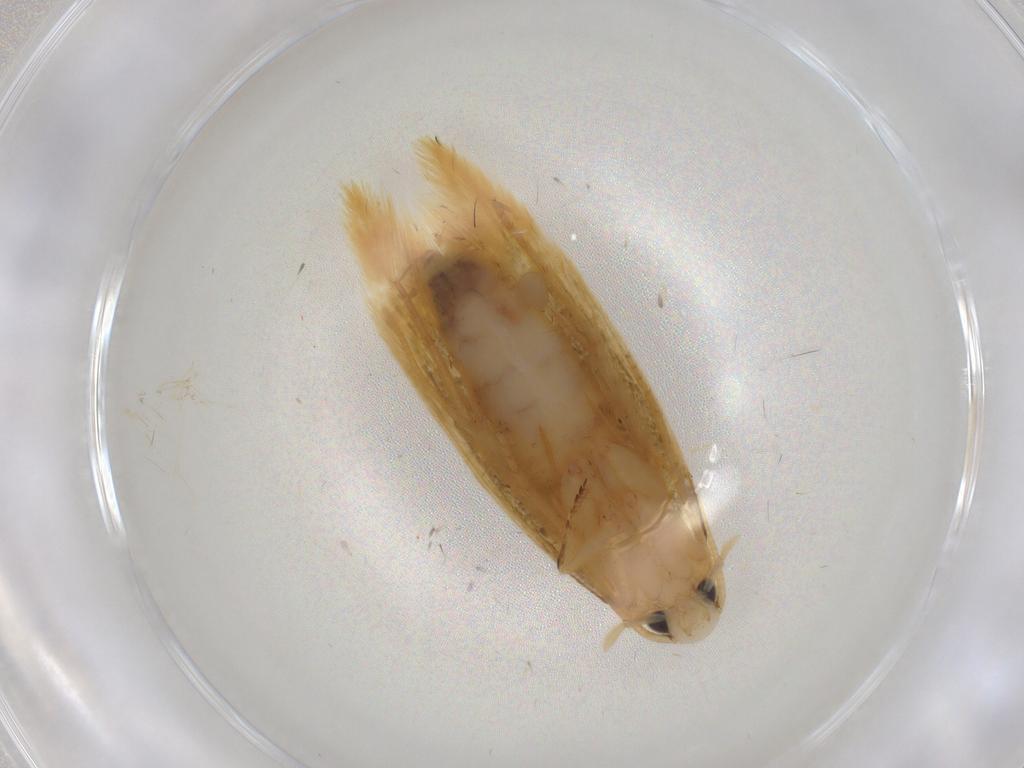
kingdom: Animalia
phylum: Arthropoda
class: Insecta
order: Lepidoptera
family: Tineidae
